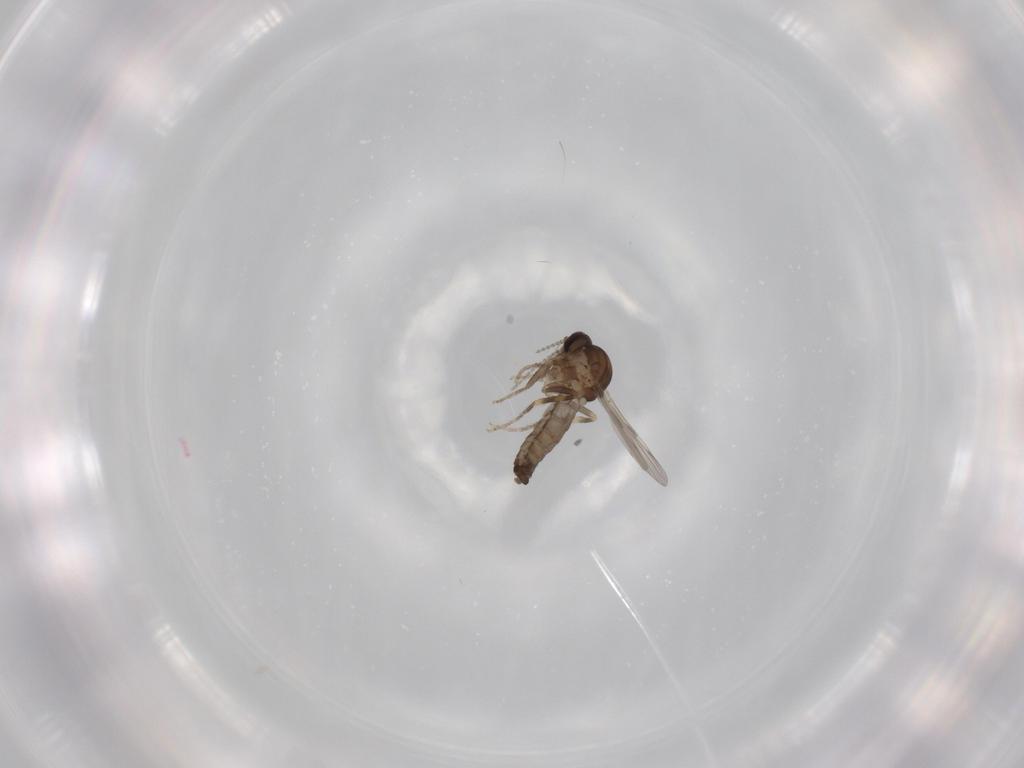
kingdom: Animalia
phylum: Arthropoda
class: Insecta
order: Diptera
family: Ceratopogonidae
